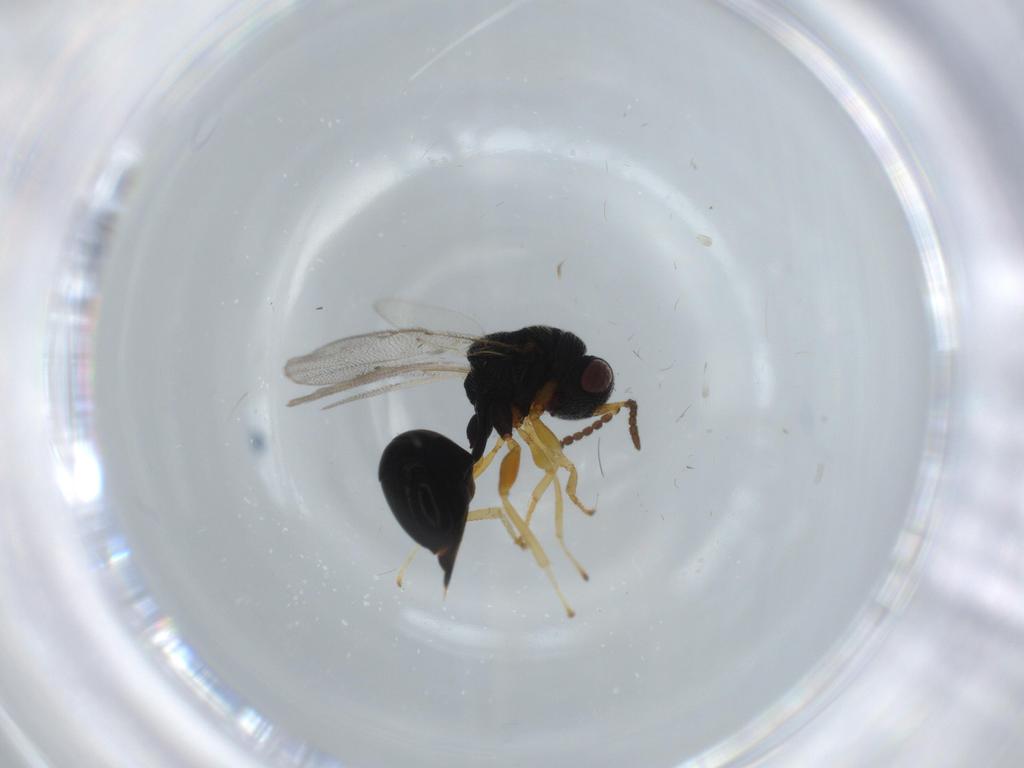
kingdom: Animalia
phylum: Arthropoda
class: Insecta
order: Hymenoptera
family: Eurytomidae
